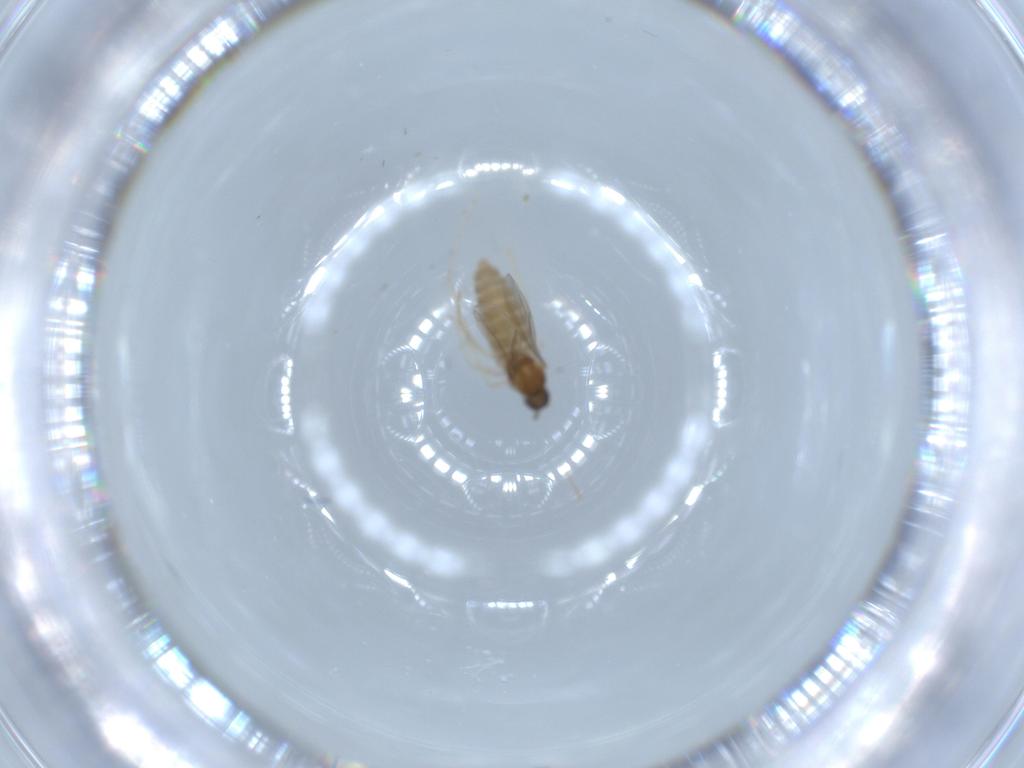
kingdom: Animalia
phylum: Arthropoda
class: Insecta
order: Diptera
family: Cecidomyiidae
